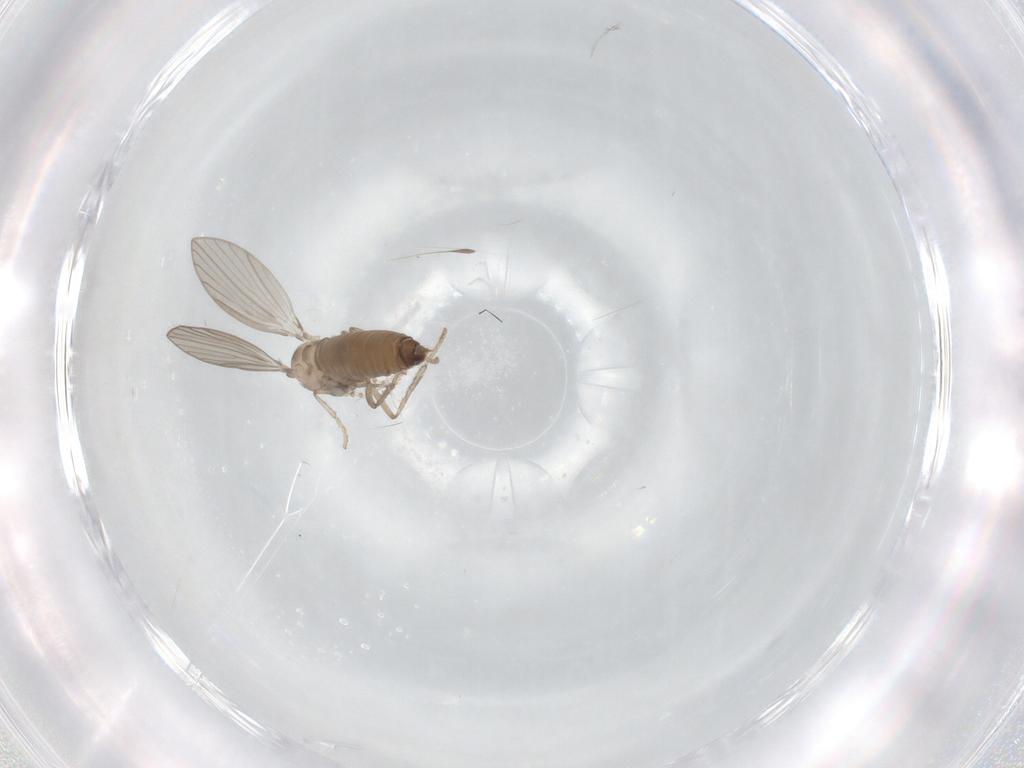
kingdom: Animalia
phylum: Arthropoda
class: Insecta
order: Diptera
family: Psychodidae
